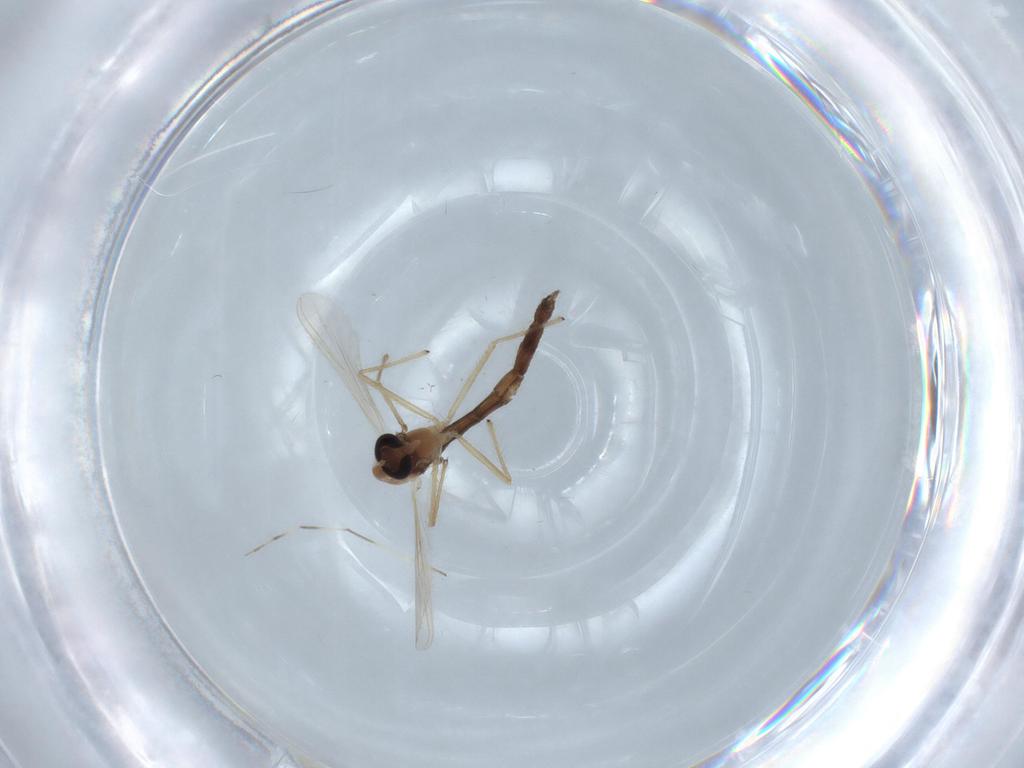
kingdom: Animalia
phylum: Arthropoda
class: Insecta
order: Diptera
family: Chironomidae
